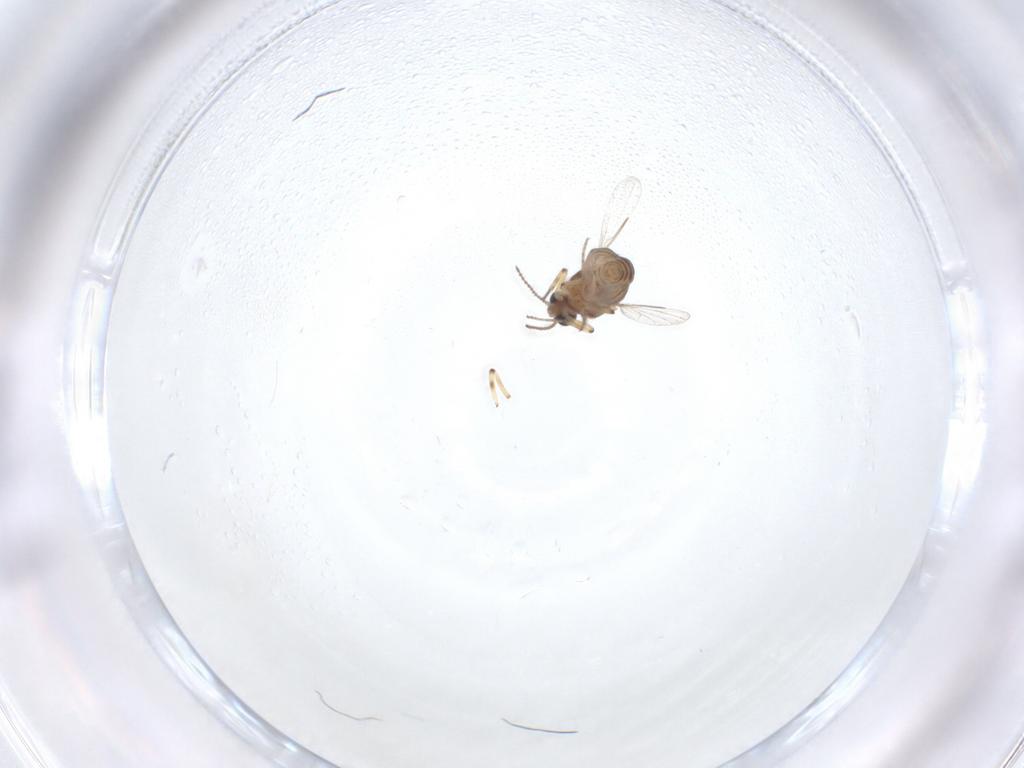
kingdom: Animalia
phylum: Arthropoda
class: Insecta
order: Diptera
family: Ceratopogonidae
